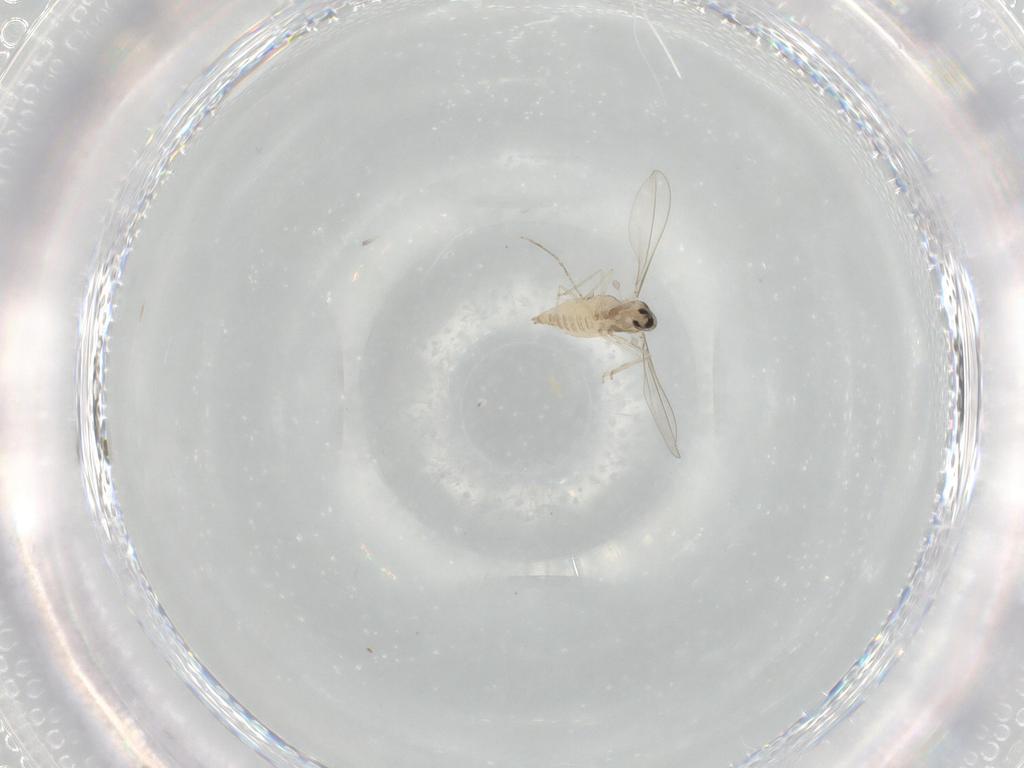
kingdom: Animalia
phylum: Arthropoda
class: Insecta
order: Diptera
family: Cecidomyiidae
